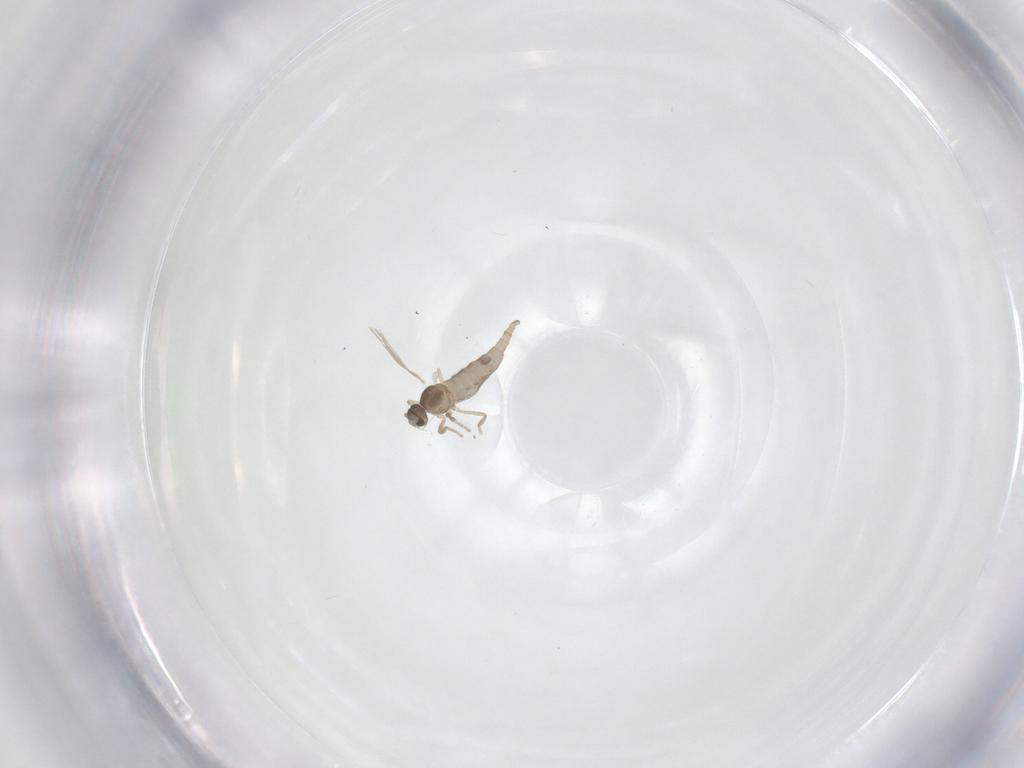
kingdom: Animalia
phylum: Arthropoda
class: Insecta
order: Diptera
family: Cecidomyiidae
